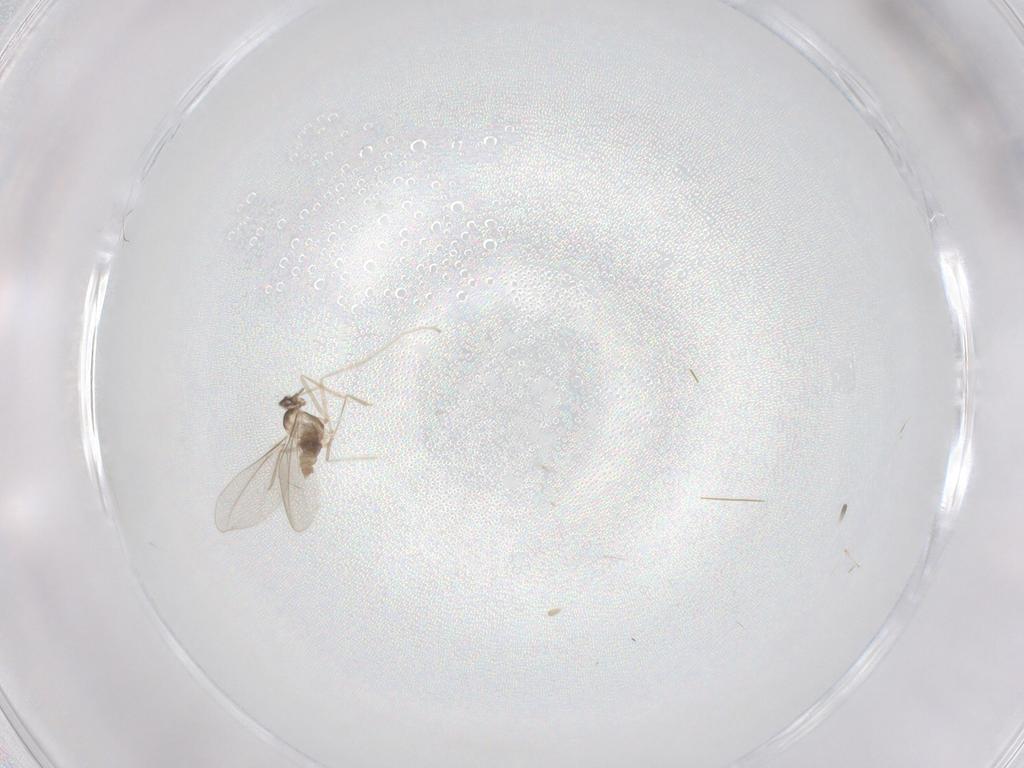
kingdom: Animalia
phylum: Arthropoda
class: Insecta
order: Diptera
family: Cecidomyiidae
